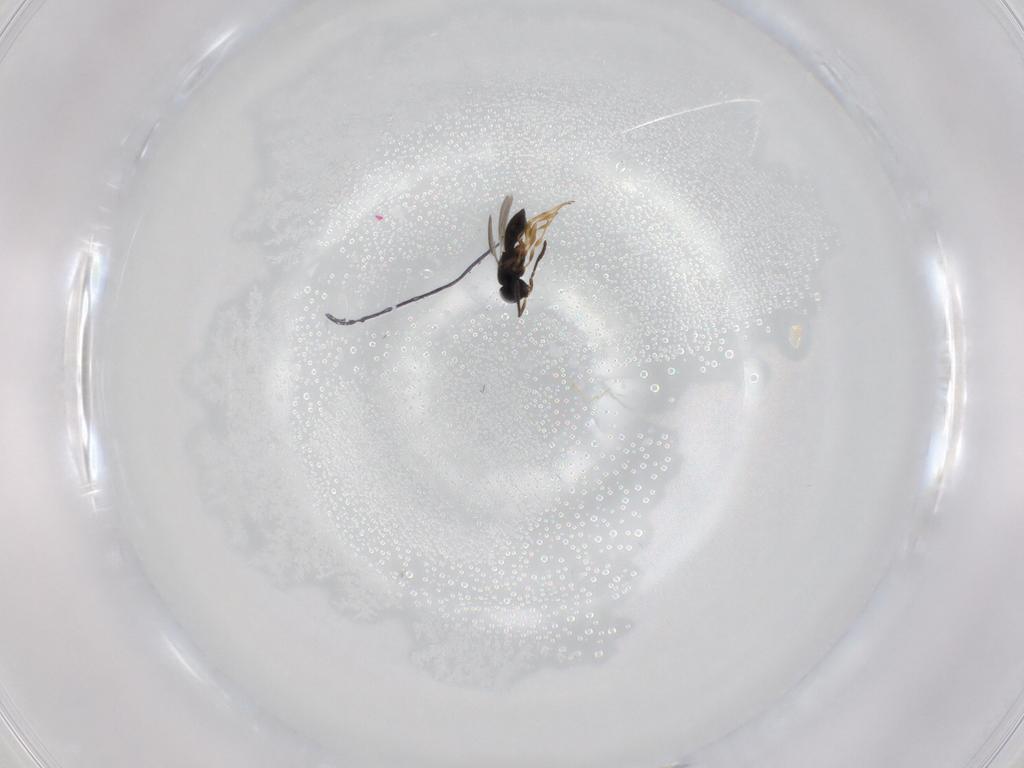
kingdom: Animalia
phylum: Arthropoda
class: Insecta
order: Hymenoptera
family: Scelionidae
